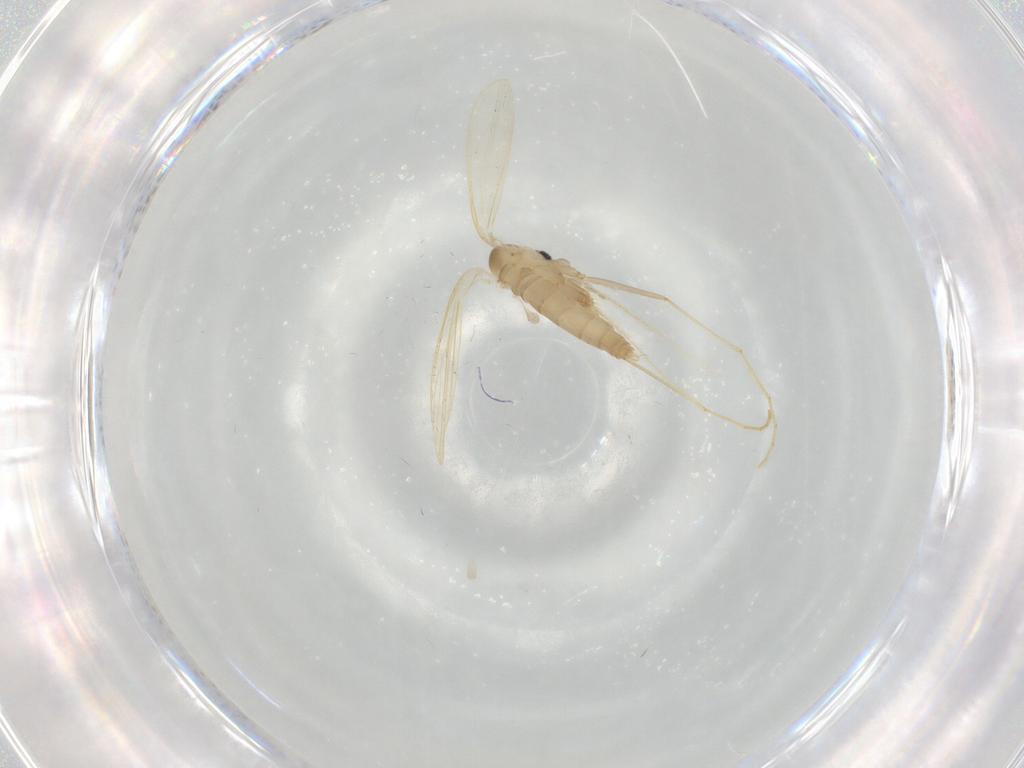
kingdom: Animalia
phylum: Arthropoda
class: Insecta
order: Diptera
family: Psychodidae
